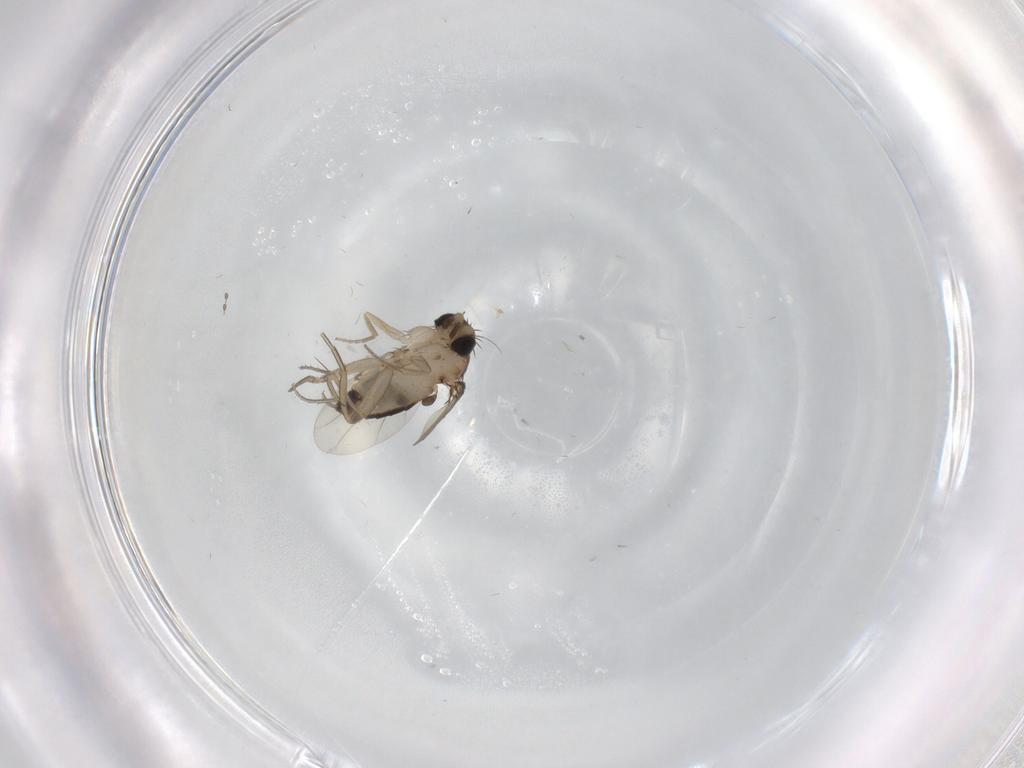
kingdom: Animalia
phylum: Arthropoda
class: Insecta
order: Diptera
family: Phoridae
